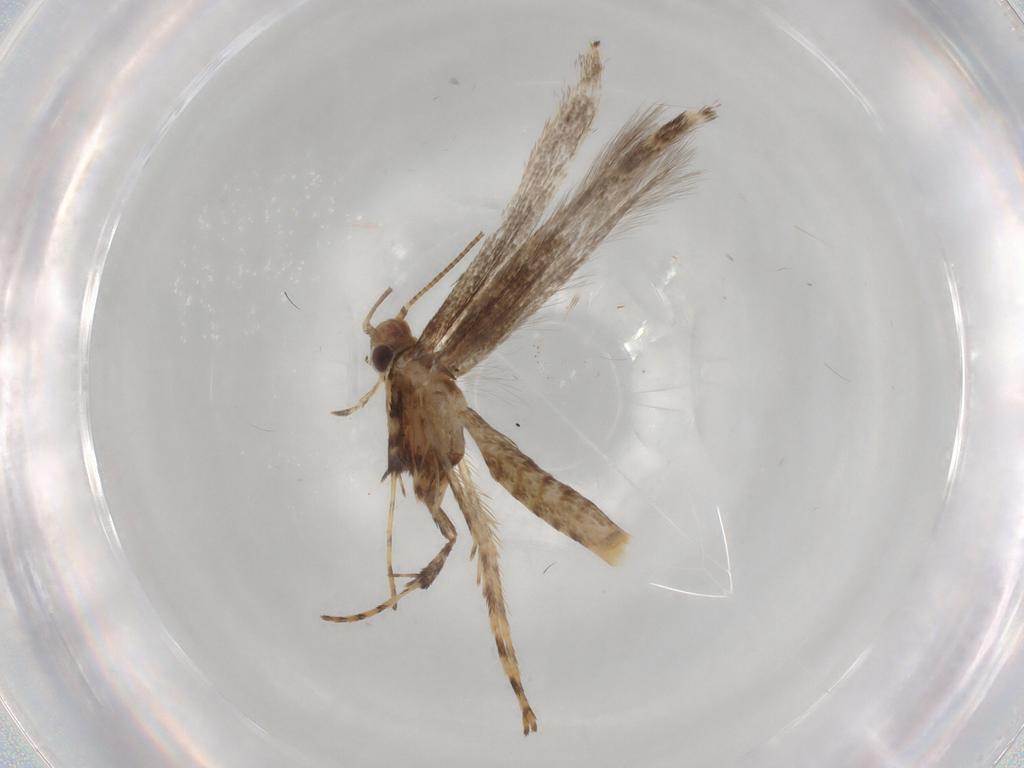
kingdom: Animalia
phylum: Arthropoda
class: Insecta
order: Lepidoptera
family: Gracillariidae
